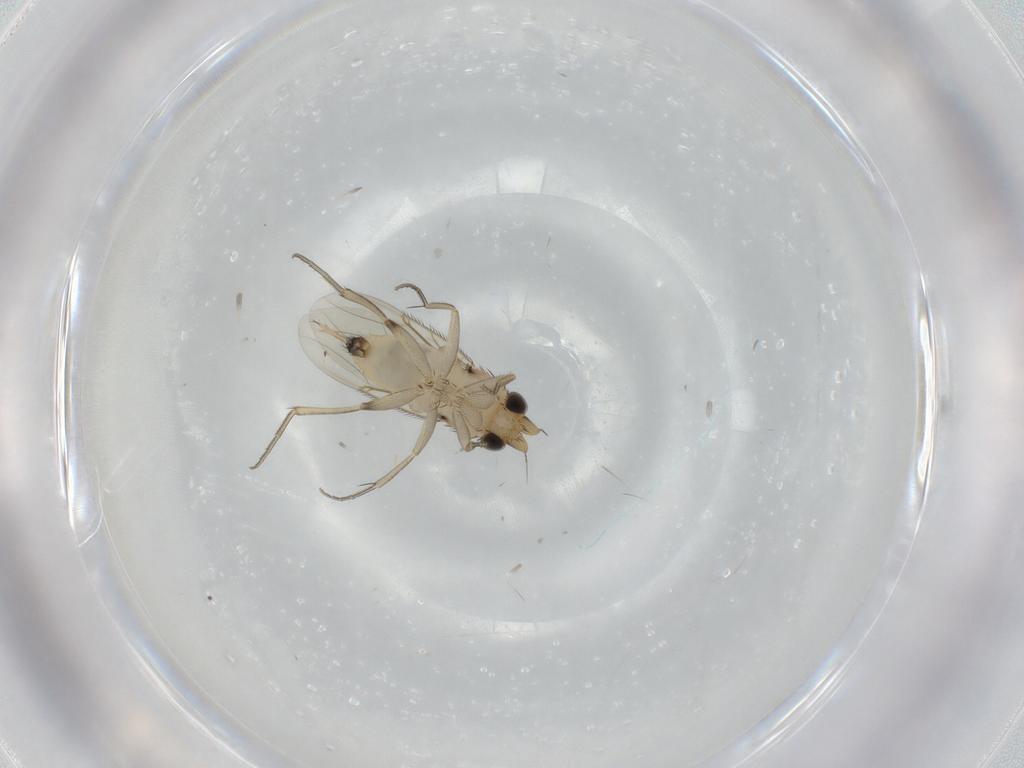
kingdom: Animalia
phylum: Arthropoda
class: Insecta
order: Diptera
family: Phoridae
